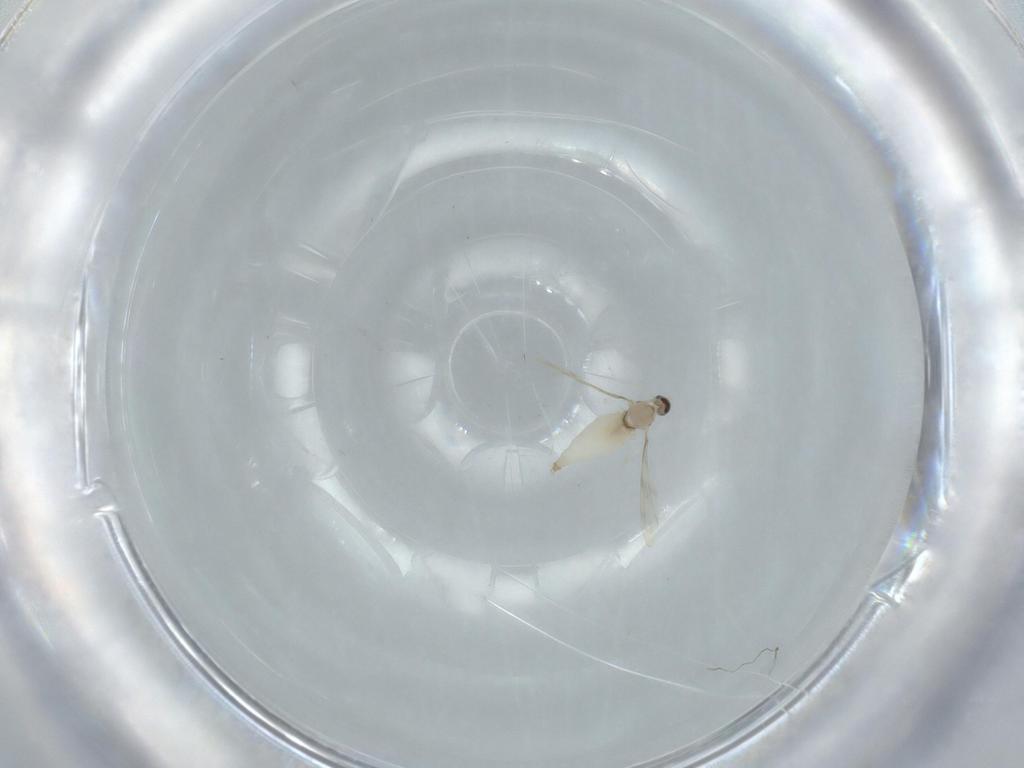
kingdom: Animalia
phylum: Arthropoda
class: Insecta
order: Diptera
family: Cecidomyiidae
